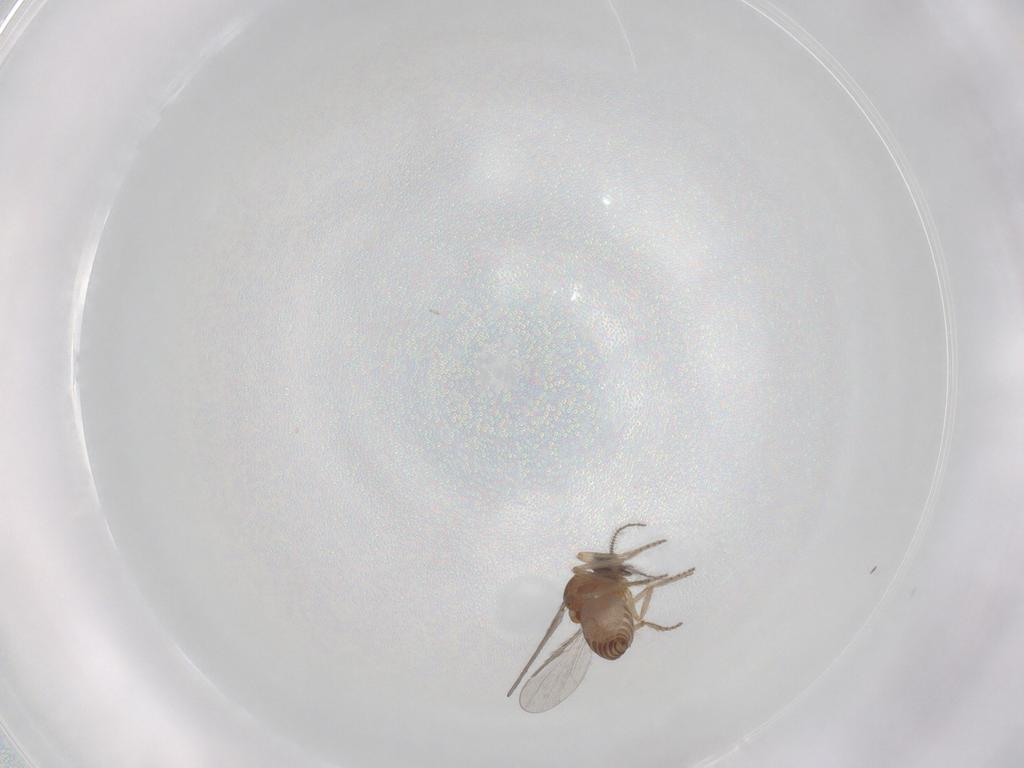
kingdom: Animalia
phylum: Arthropoda
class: Insecta
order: Diptera
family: Ceratopogonidae
